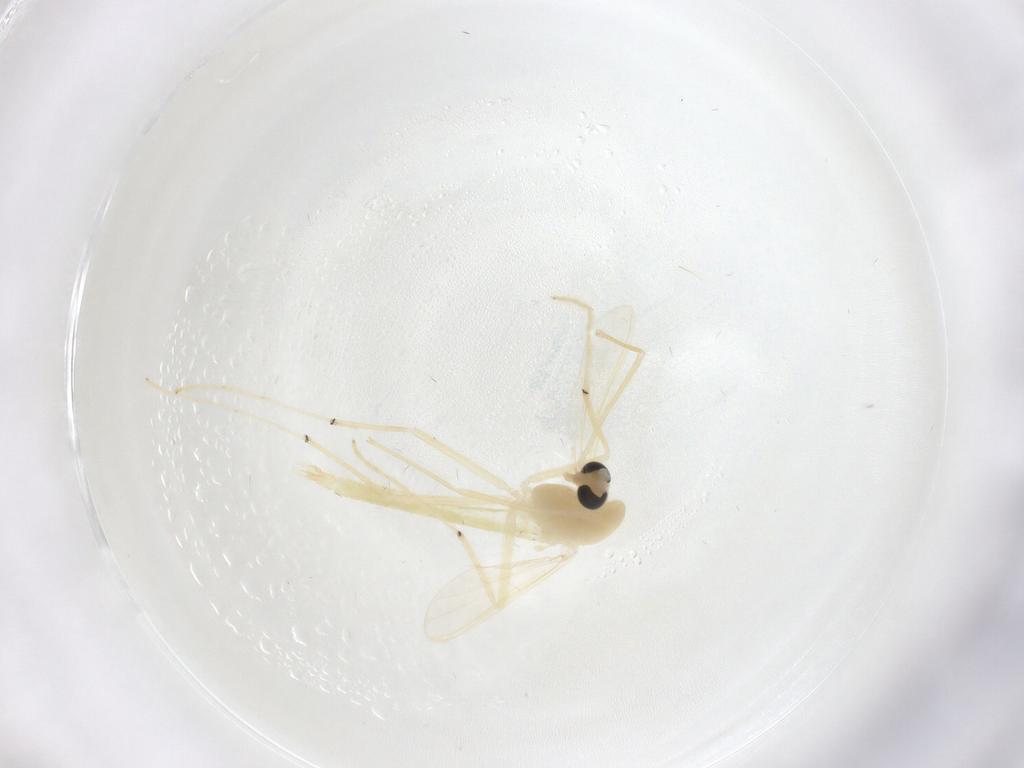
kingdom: Animalia
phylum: Arthropoda
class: Insecta
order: Diptera
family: Chironomidae
